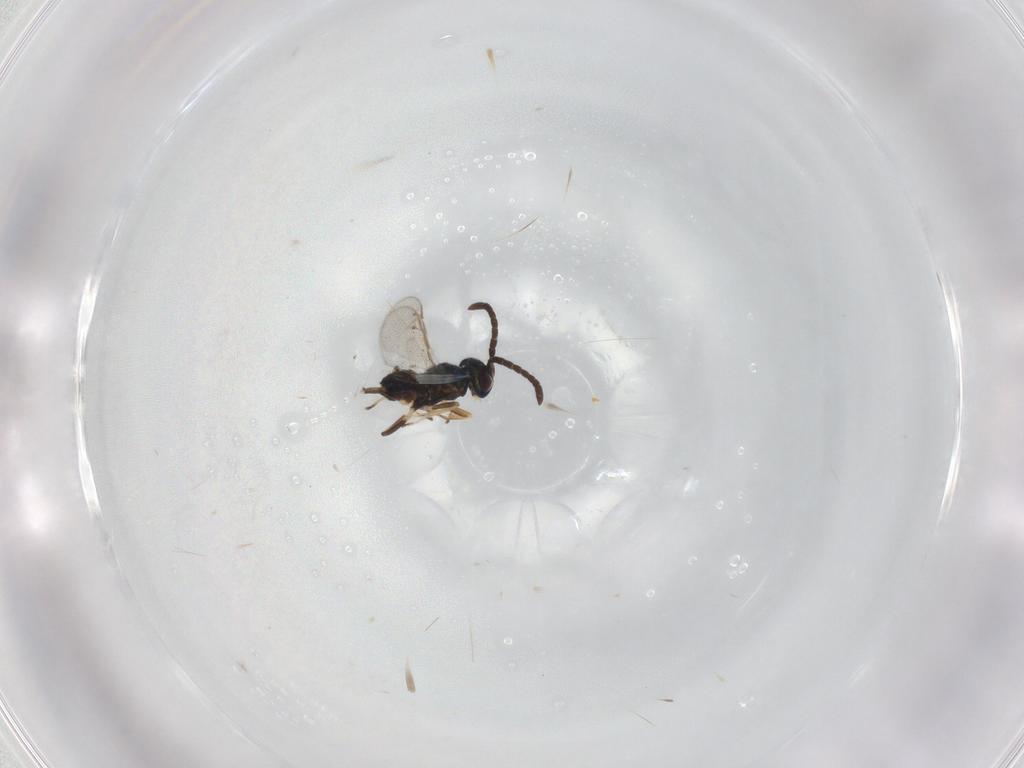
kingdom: Animalia
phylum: Arthropoda
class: Insecta
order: Hymenoptera
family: Eupelmidae
